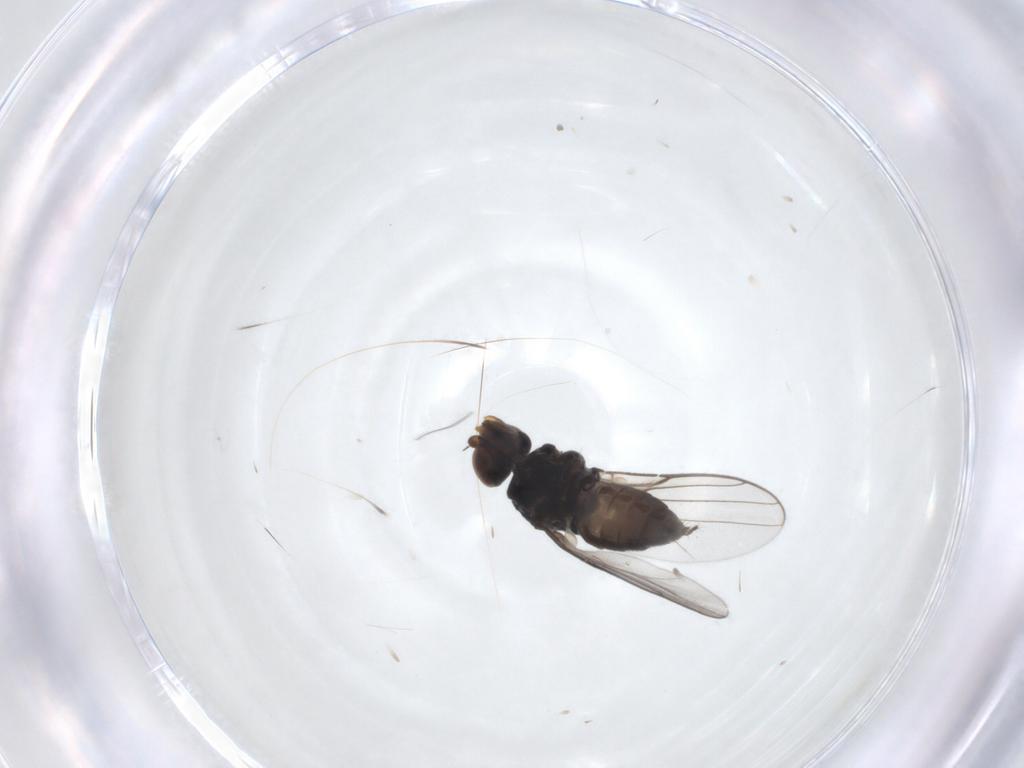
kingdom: Animalia
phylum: Arthropoda
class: Insecta
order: Diptera
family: Chloropidae
